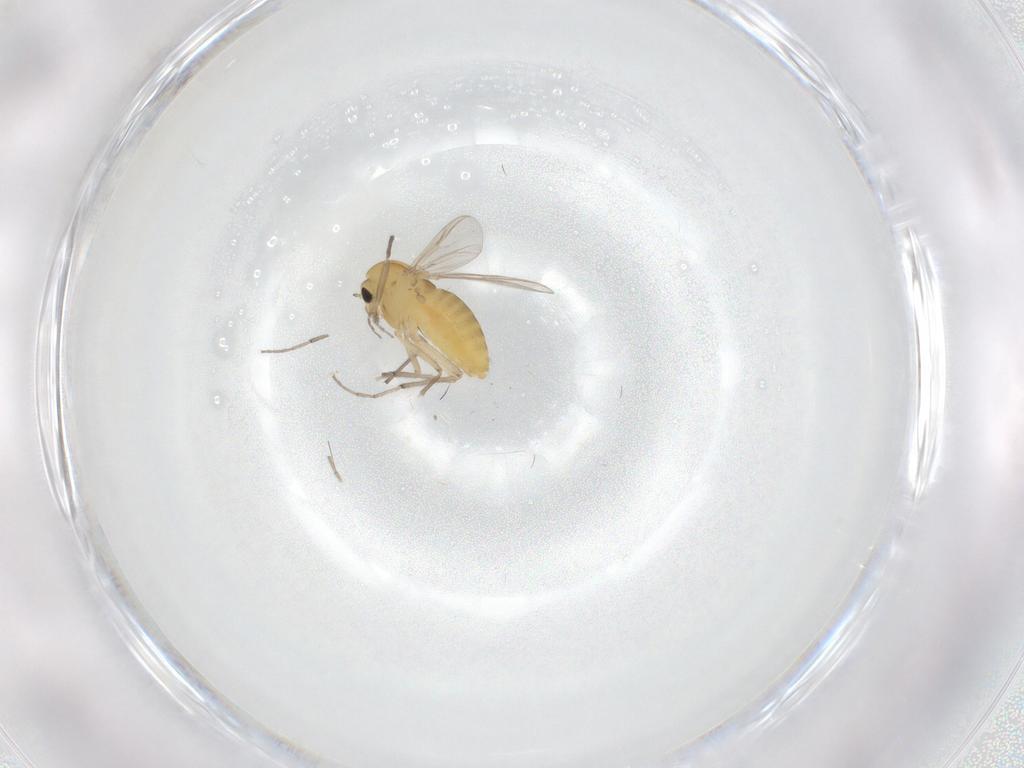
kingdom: Animalia
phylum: Arthropoda
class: Insecta
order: Diptera
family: Chironomidae
